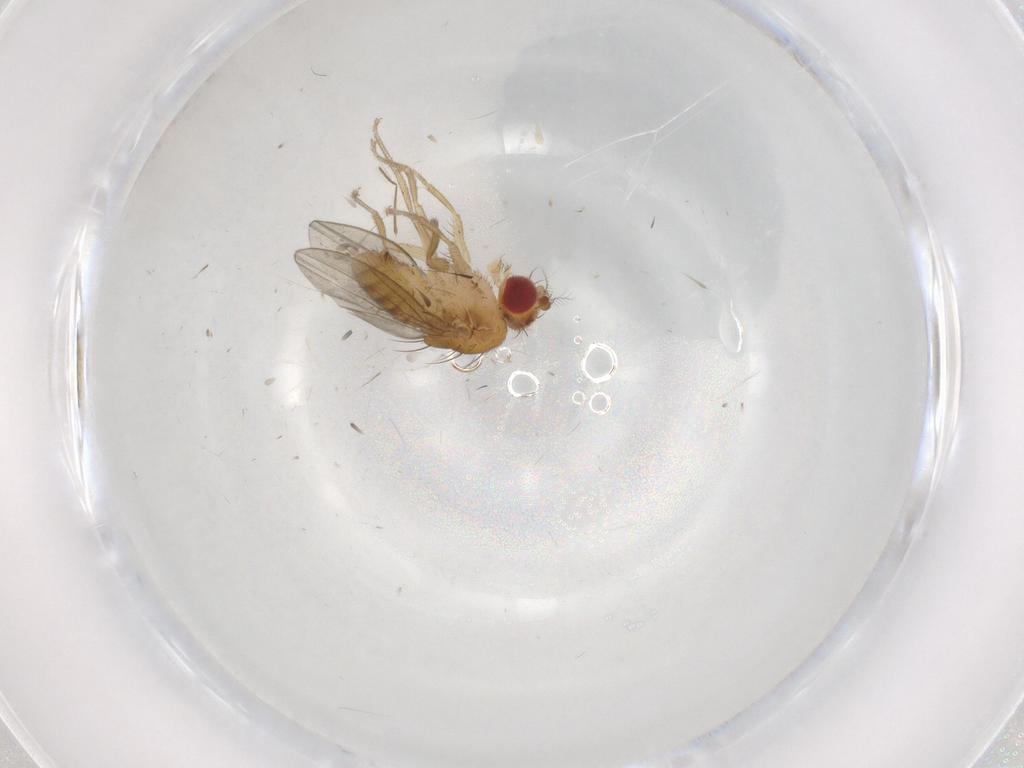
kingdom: Animalia
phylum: Arthropoda
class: Insecta
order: Diptera
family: Drosophilidae
